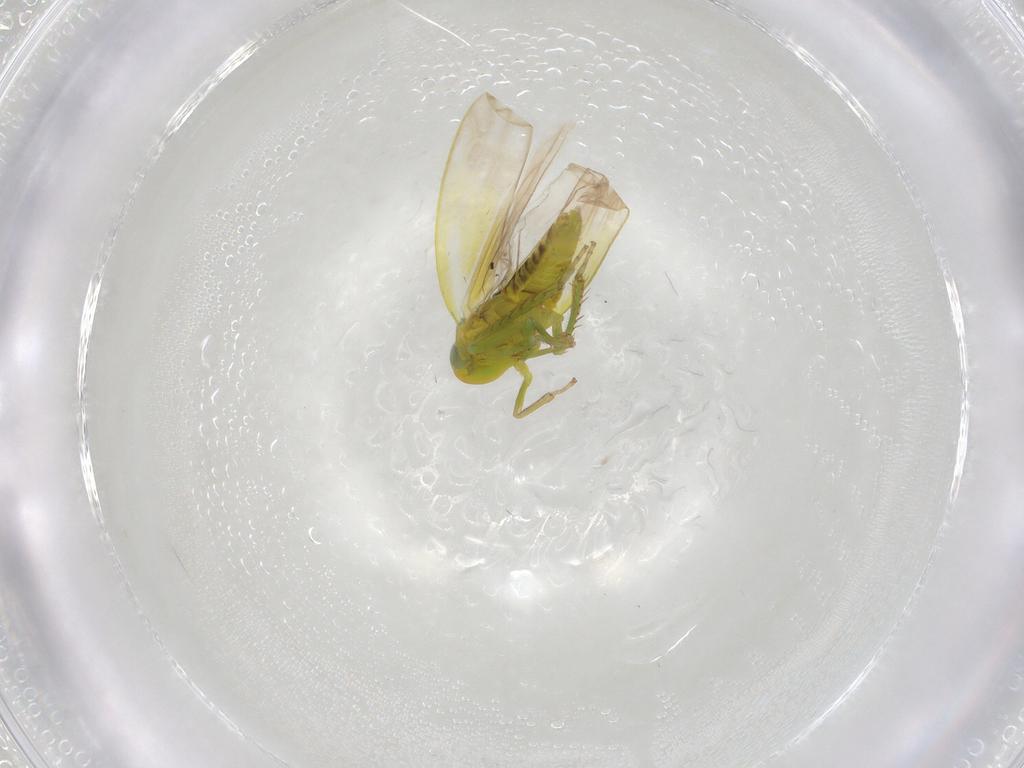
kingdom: Animalia
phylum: Arthropoda
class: Insecta
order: Hemiptera
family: Cicadellidae
